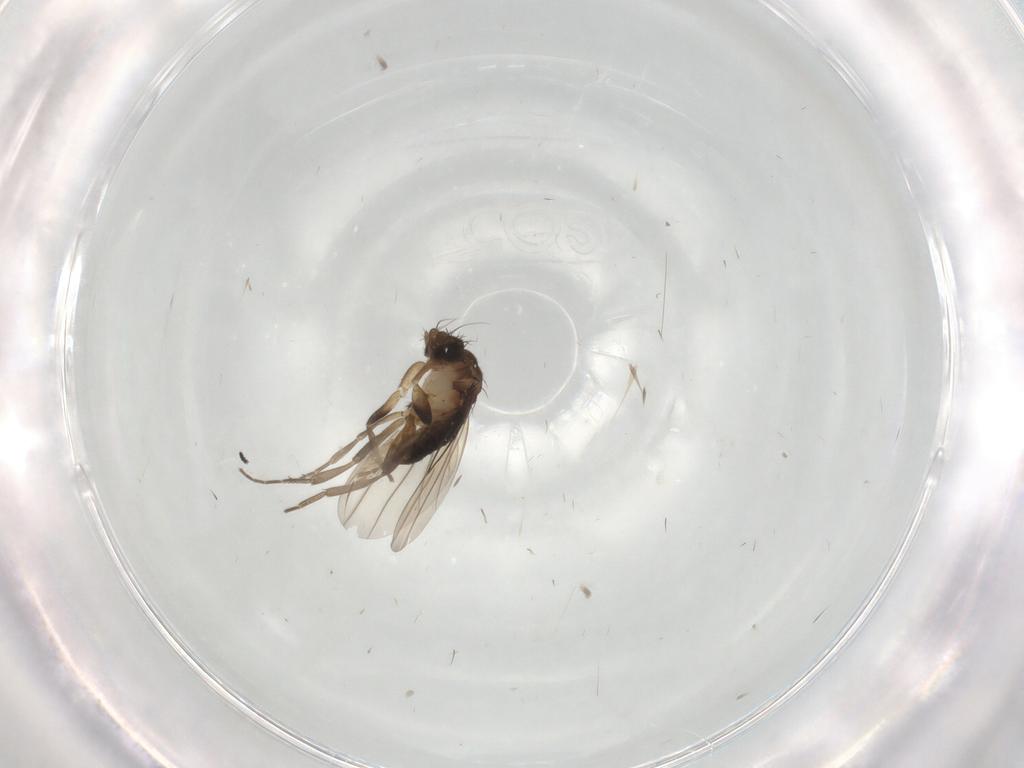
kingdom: Animalia
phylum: Arthropoda
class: Insecta
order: Diptera
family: Phoridae
